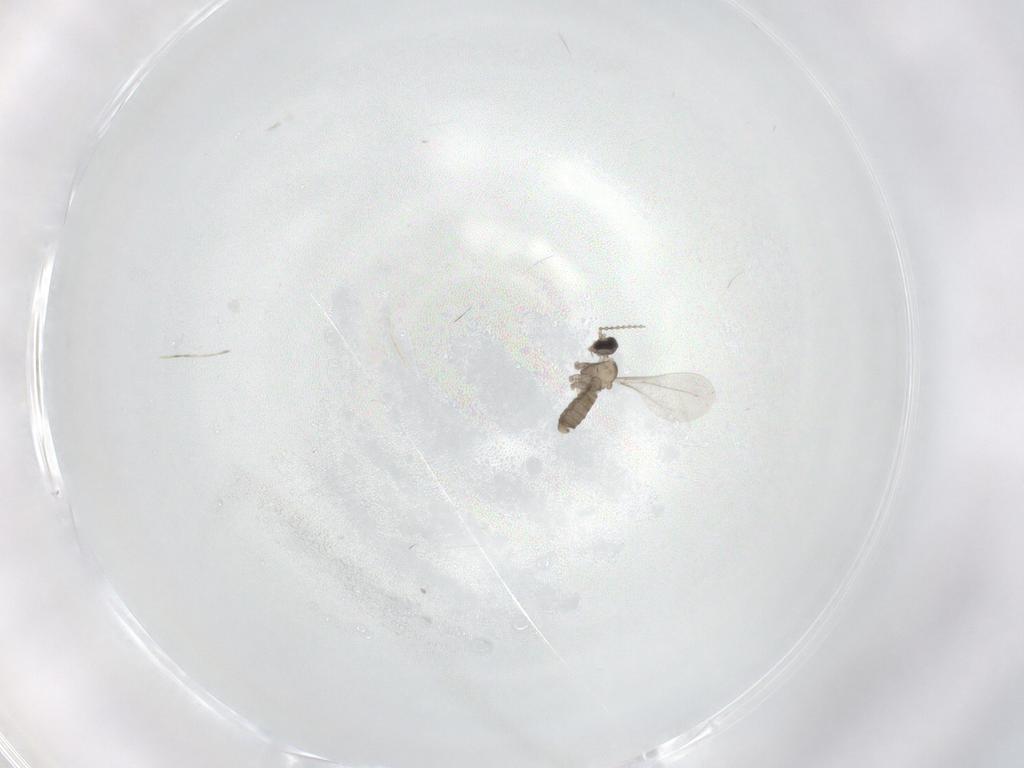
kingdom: Animalia
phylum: Arthropoda
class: Insecta
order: Diptera
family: Cecidomyiidae
